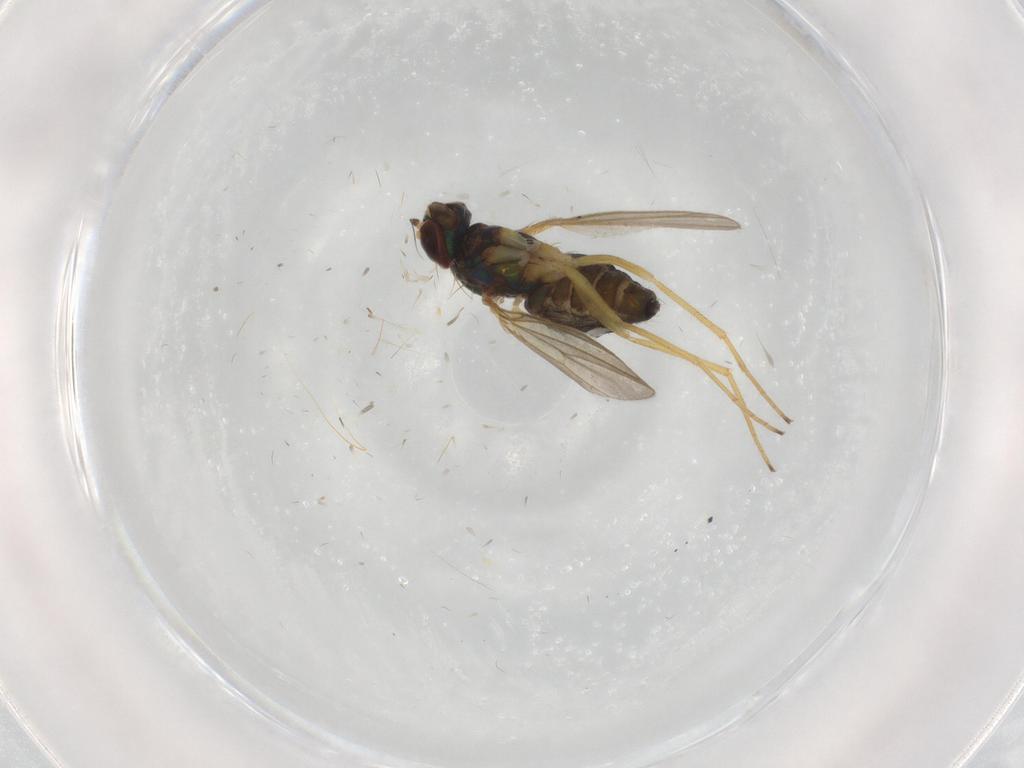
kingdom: Animalia
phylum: Arthropoda
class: Insecta
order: Diptera
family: Dolichopodidae
